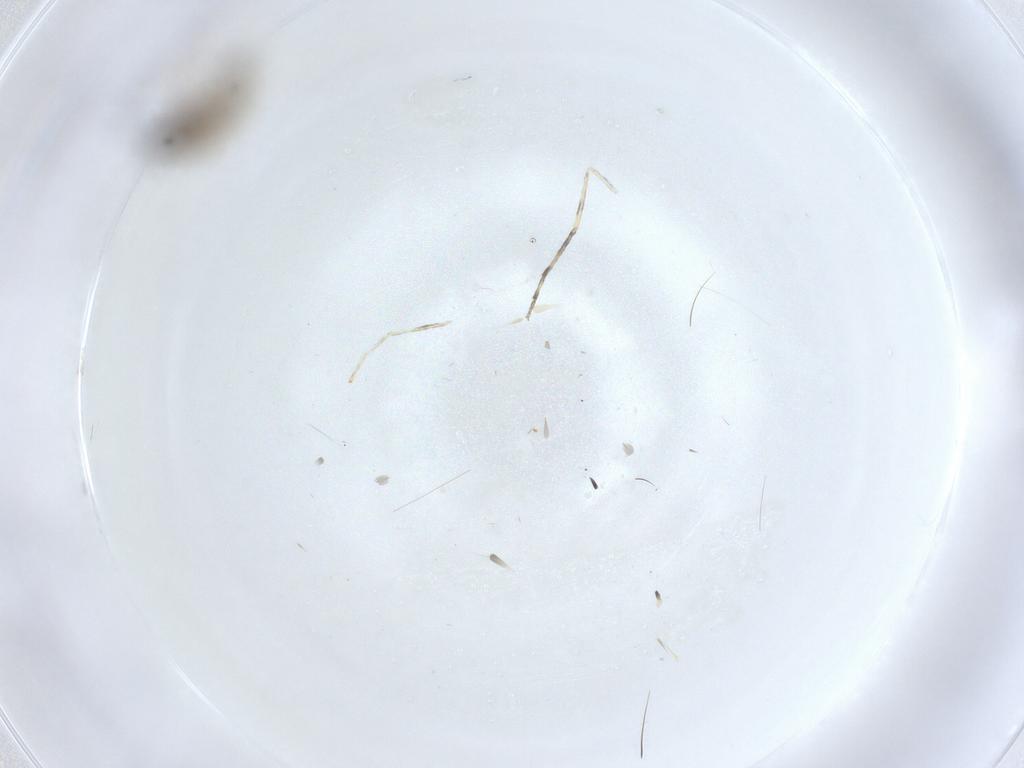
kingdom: Animalia
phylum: Arthropoda
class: Insecta
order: Diptera
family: Cecidomyiidae
